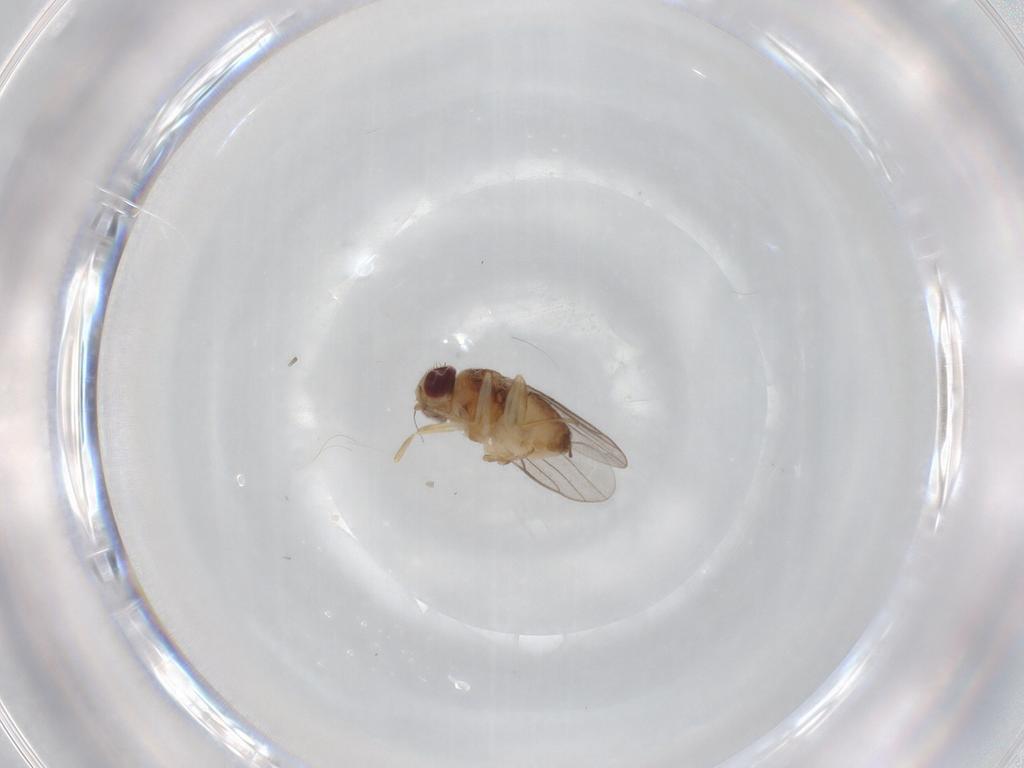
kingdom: Animalia
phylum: Arthropoda
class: Insecta
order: Diptera
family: Chloropidae
